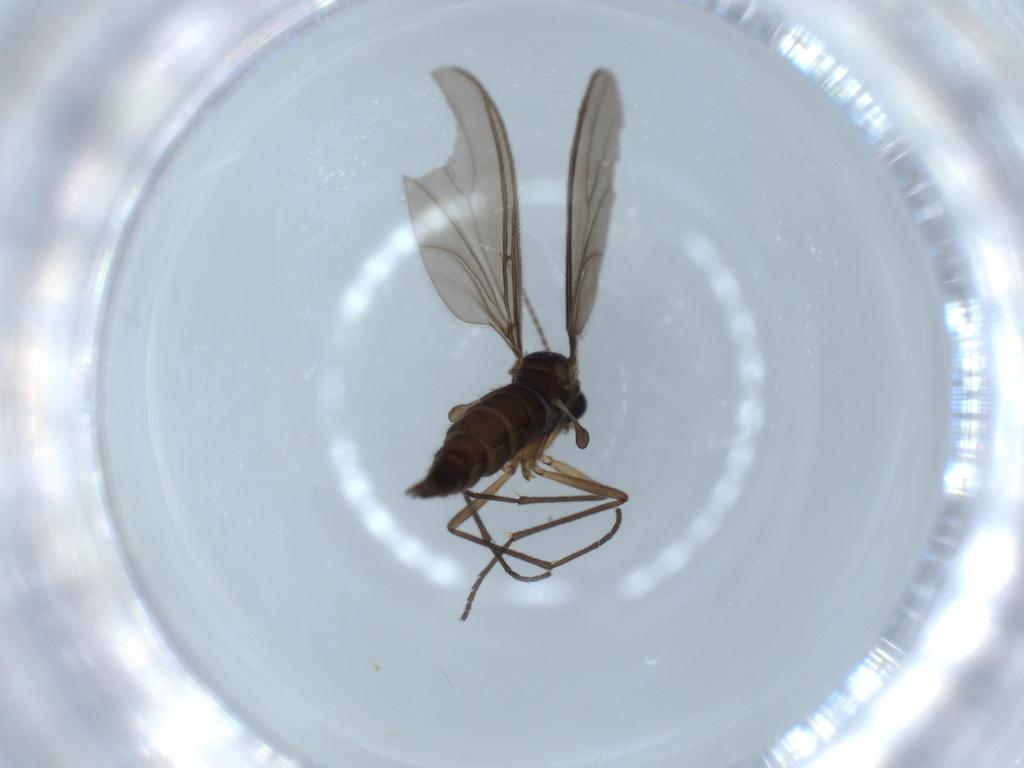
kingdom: Animalia
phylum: Arthropoda
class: Insecta
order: Diptera
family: Sciaridae
